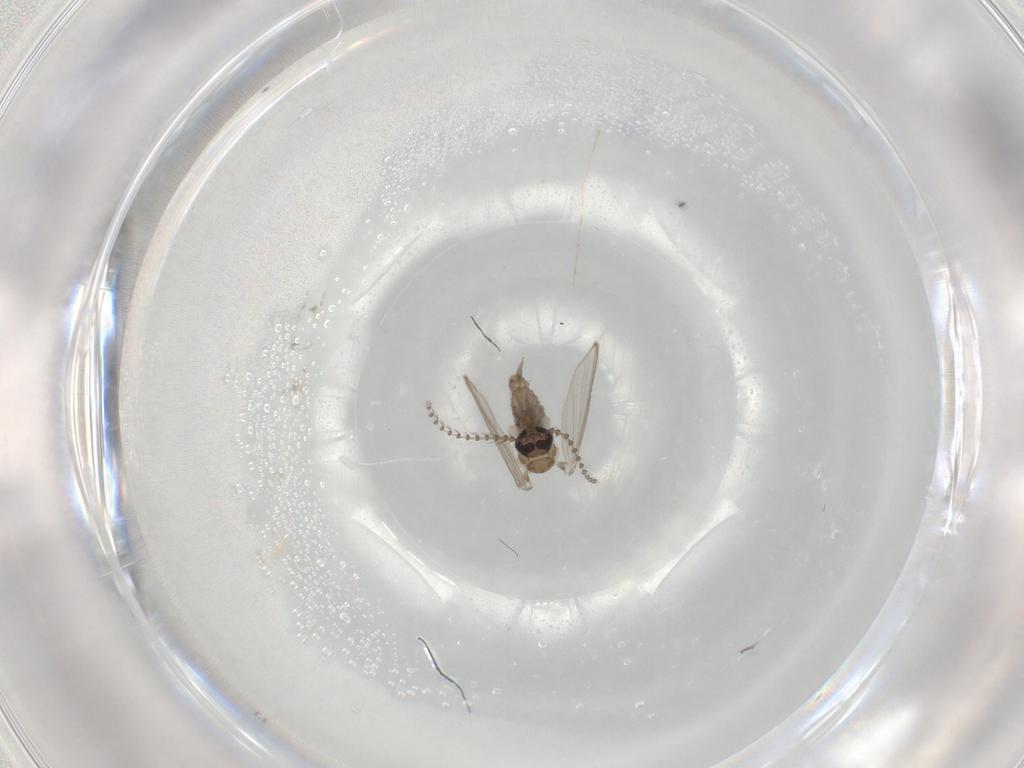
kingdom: Animalia
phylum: Arthropoda
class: Insecta
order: Diptera
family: Psychodidae
